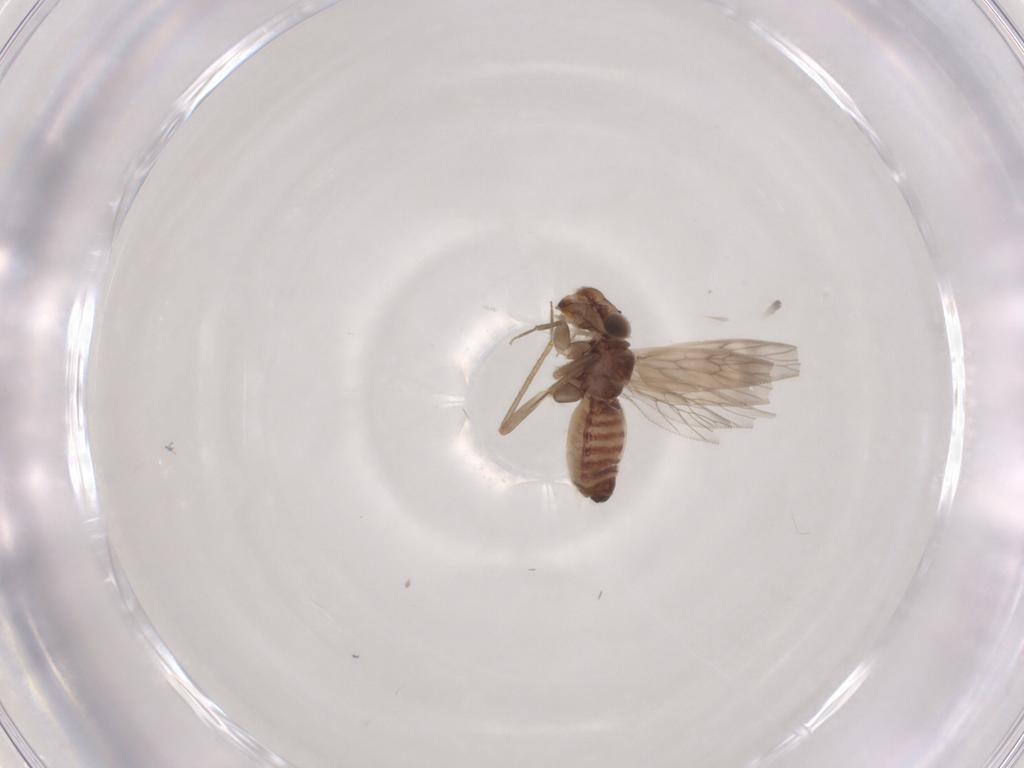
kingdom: Animalia
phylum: Arthropoda
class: Insecta
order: Psocodea
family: Lepidopsocidae
